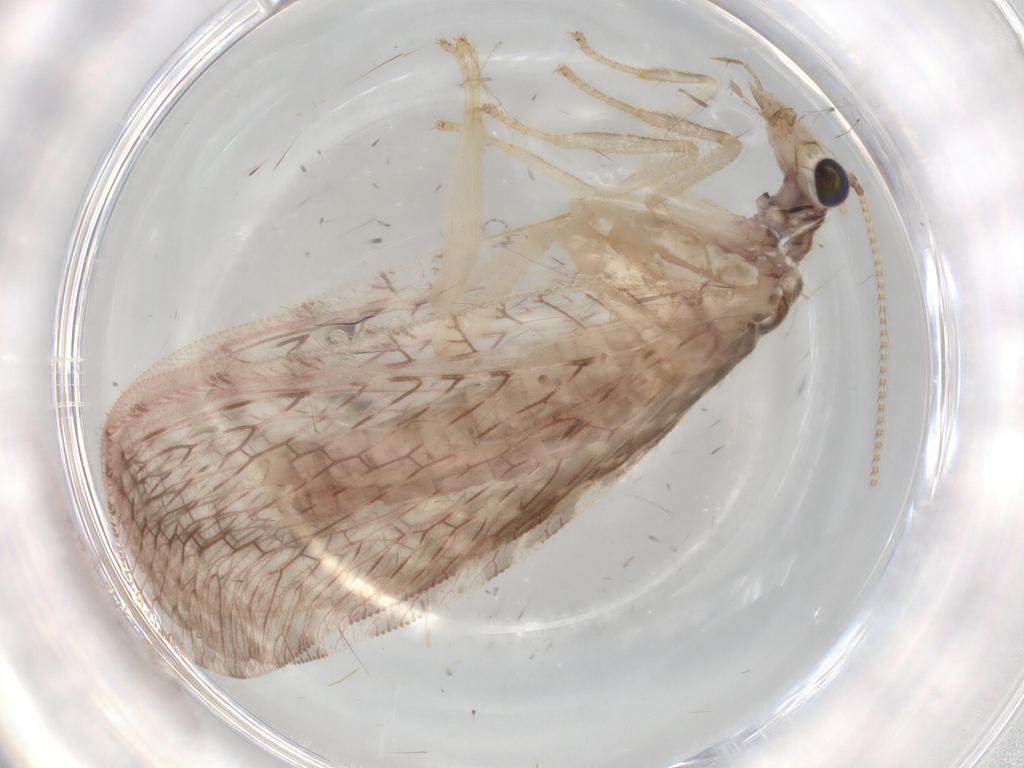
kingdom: Animalia
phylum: Arthropoda
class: Insecta
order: Neuroptera
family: Hemerobiidae
